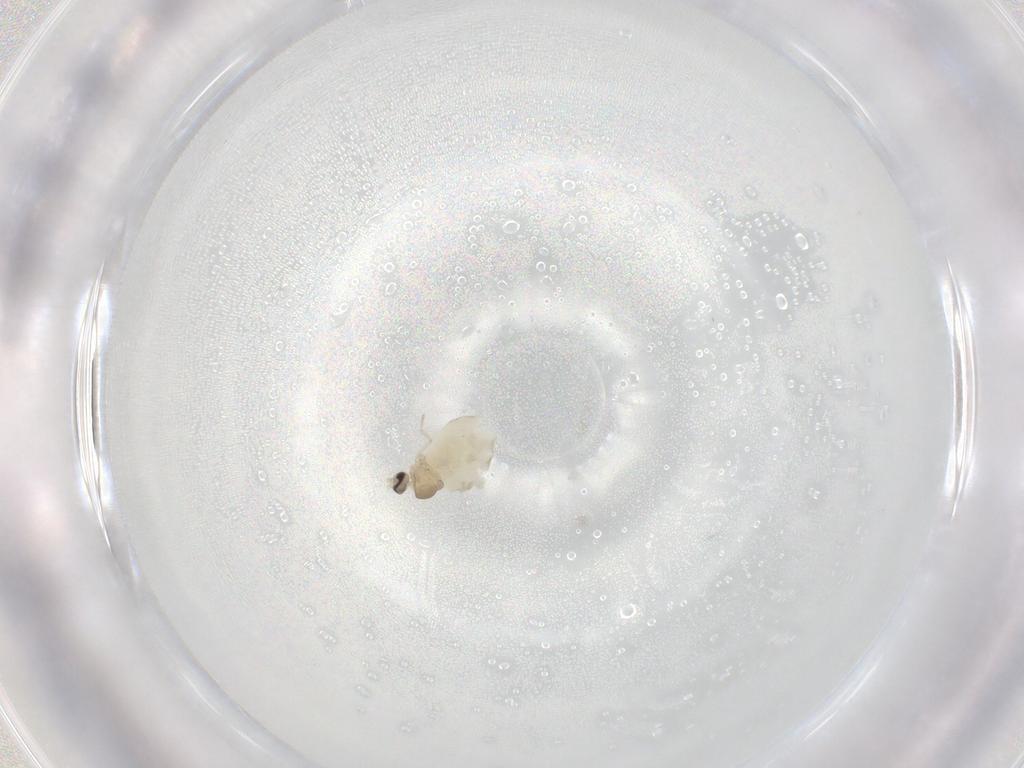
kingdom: Animalia
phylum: Arthropoda
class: Insecta
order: Diptera
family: Cecidomyiidae
